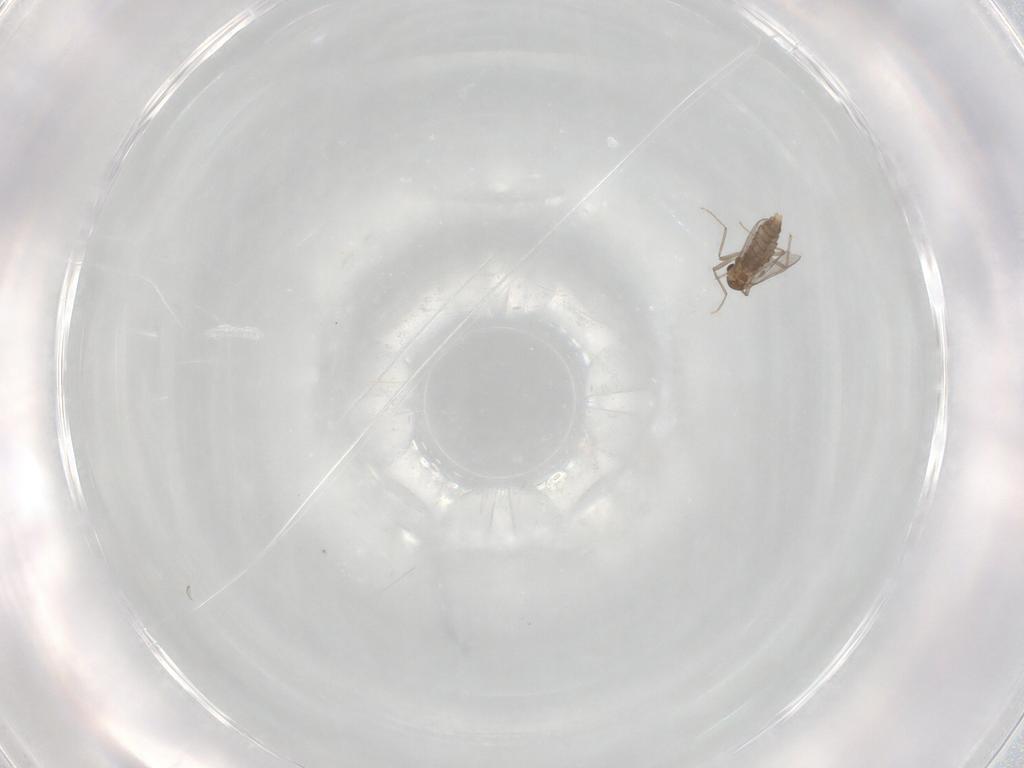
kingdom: Animalia
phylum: Arthropoda
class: Insecta
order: Diptera
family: Chironomidae
